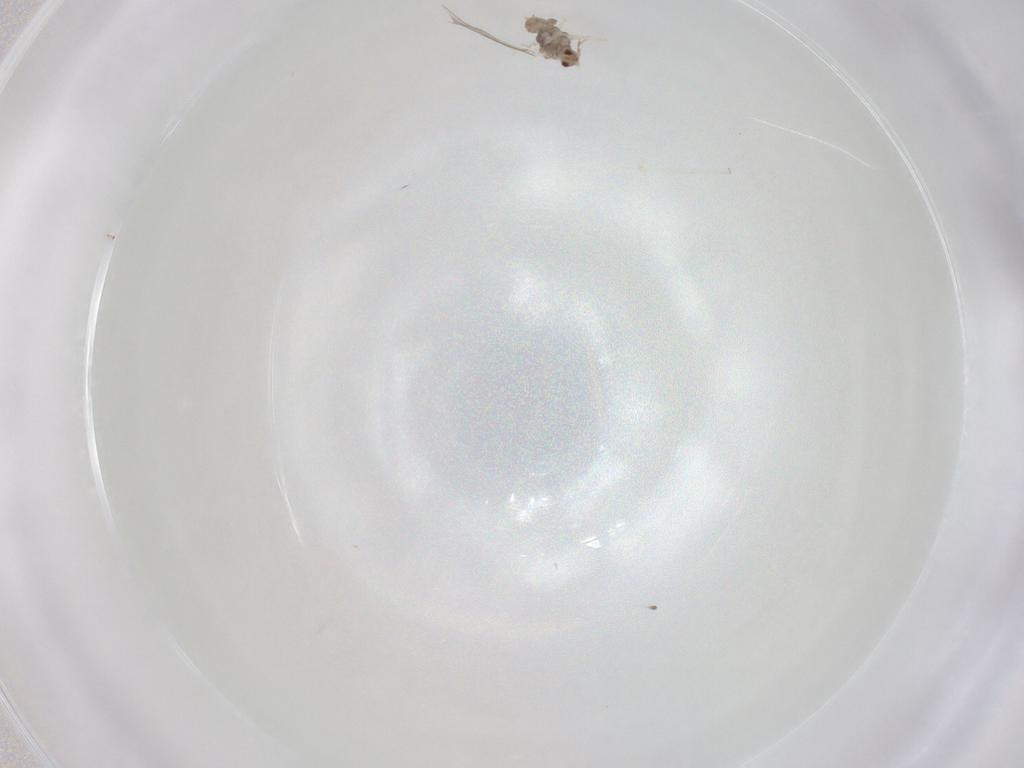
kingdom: Animalia
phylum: Arthropoda
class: Insecta
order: Diptera
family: Cecidomyiidae
